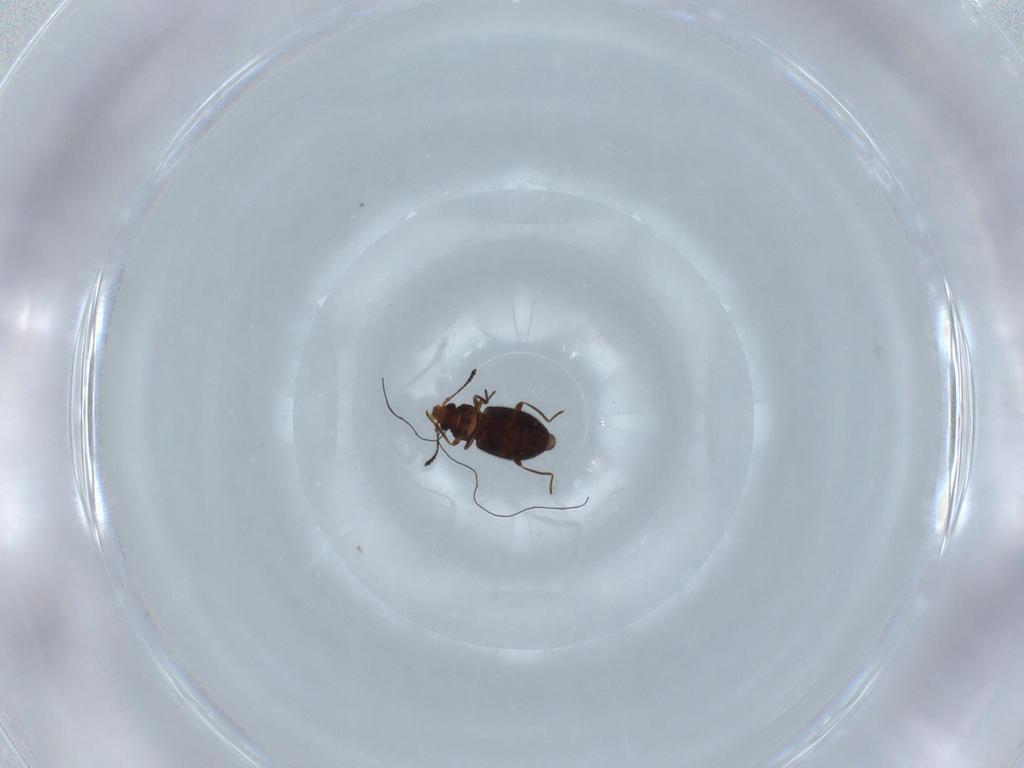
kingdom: Animalia
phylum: Arthropoda
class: Insecta
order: Coleoptera
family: Cryptophagidae
